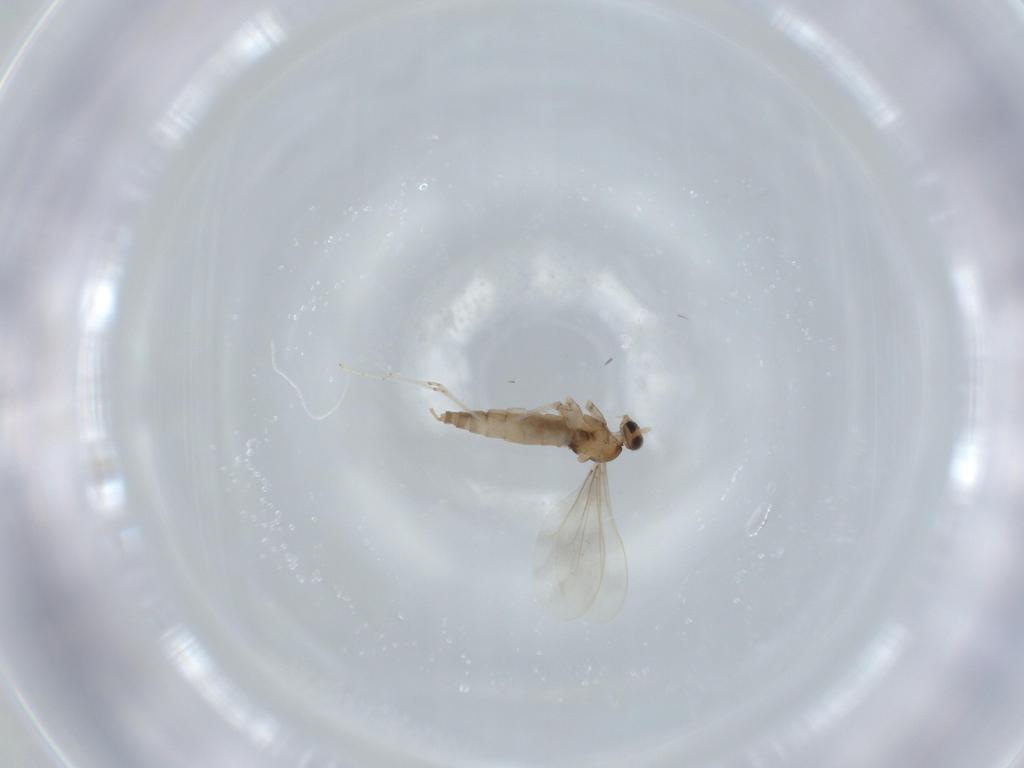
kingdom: Animalia
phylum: Arthropoda
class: Insecta
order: Diptera
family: Cecidomyiidae
